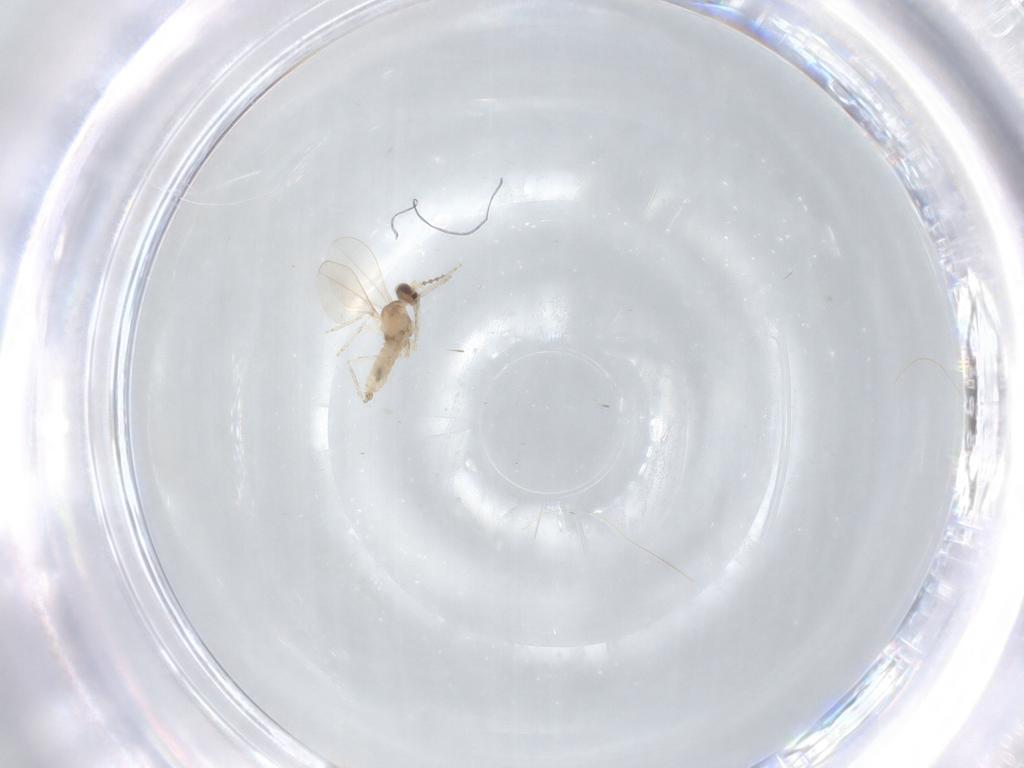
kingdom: Animalia
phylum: Arthropoda
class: Insecta
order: Diptera
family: Cecidomyiidae
